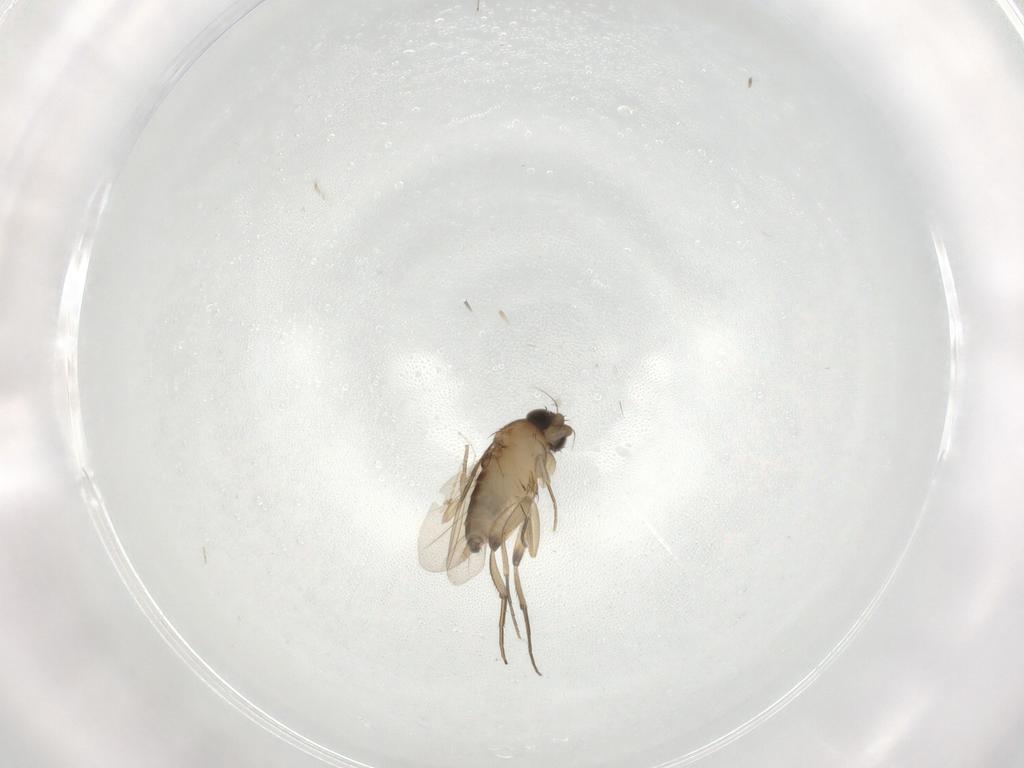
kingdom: Animalia
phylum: Arthropoda
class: Insecta
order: Diptera
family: Phoridae
